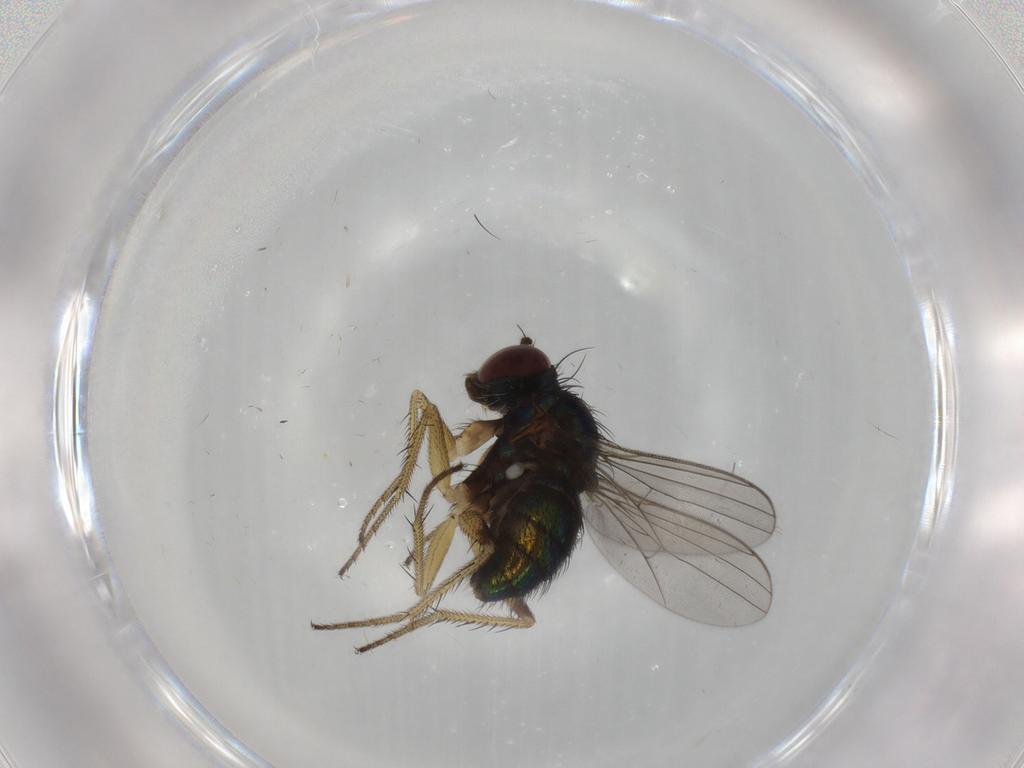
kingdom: Animalia
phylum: Arthropoda
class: Insecta
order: Diptera
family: Dolichopodidae
